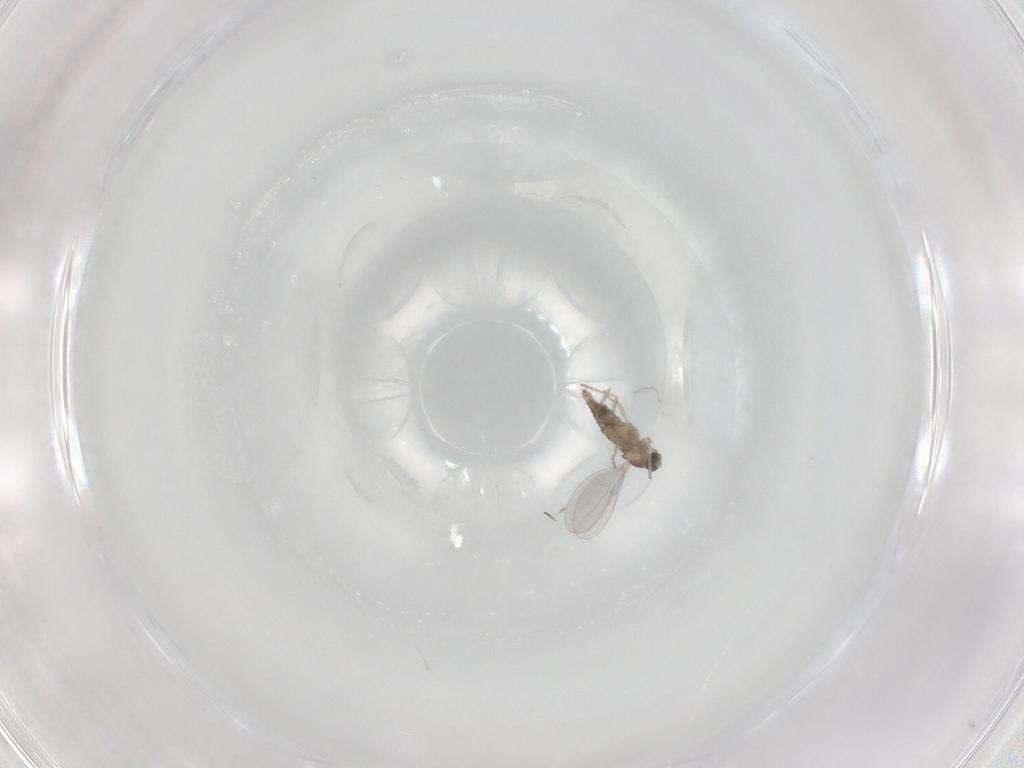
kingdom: Animalia
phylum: Arthropoda
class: Insecta
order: Diptera
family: Cecidomyiidae
